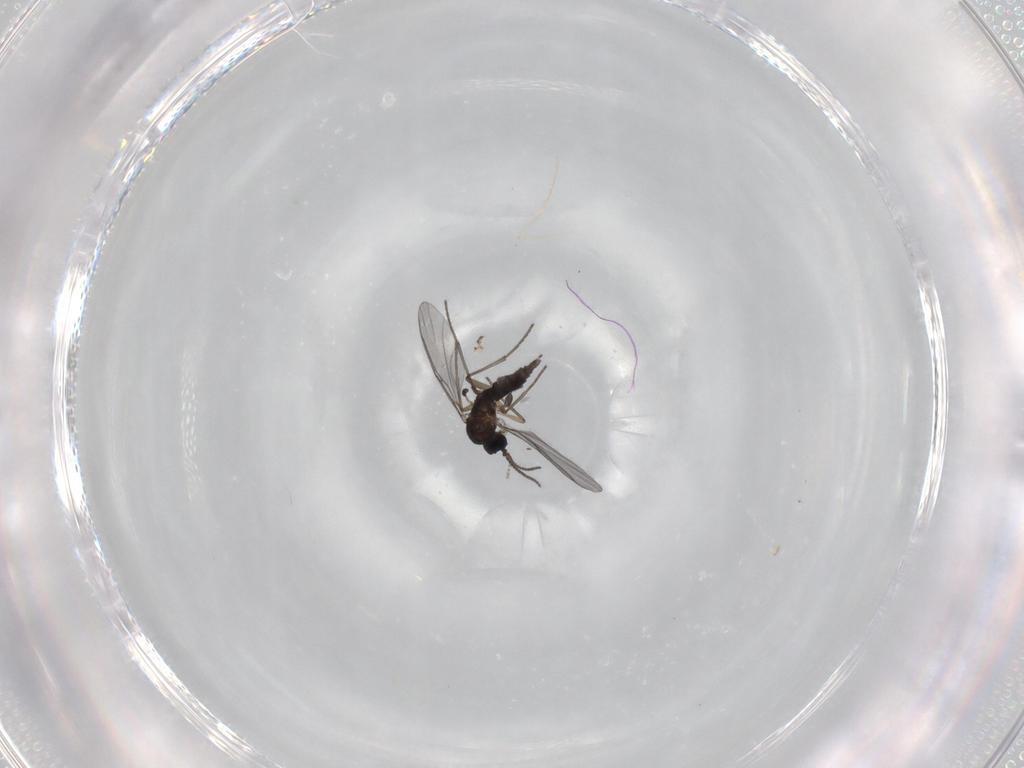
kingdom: Animalia
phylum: Arthropoda
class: Insecta
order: Diptera
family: Sciaridae
